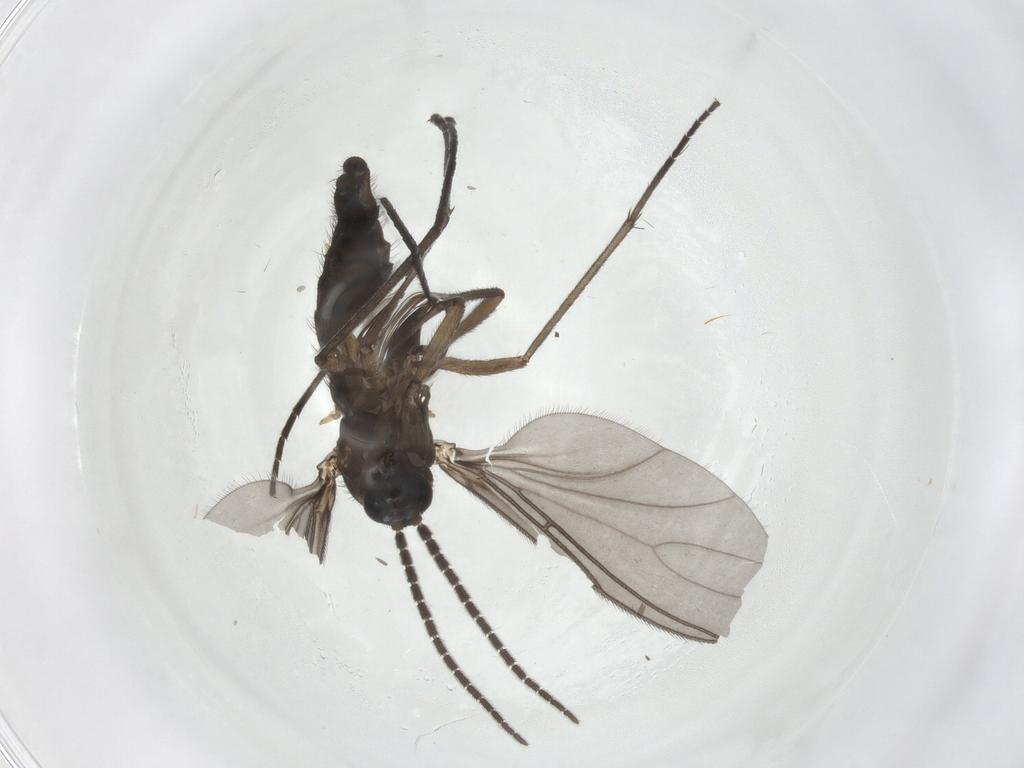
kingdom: Animalia
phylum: Arthropoda
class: Insecta
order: Diptera
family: Sciaridae
